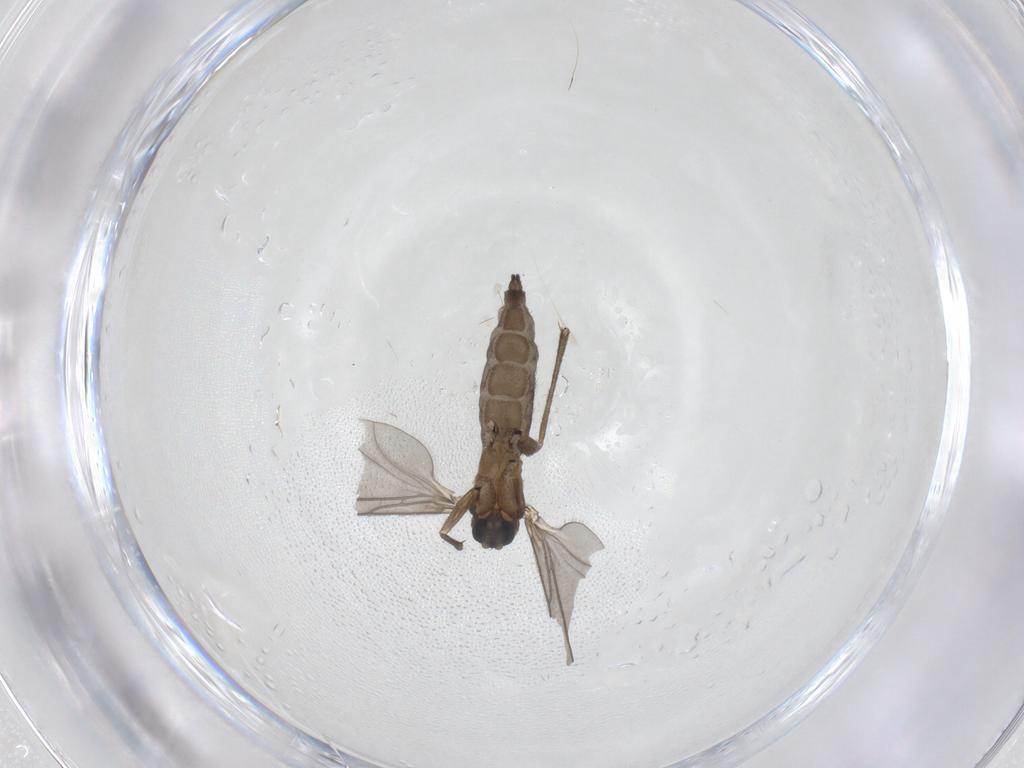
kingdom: Animalia
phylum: Arthropoda
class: Insecta
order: Diptera
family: Sciaridae
